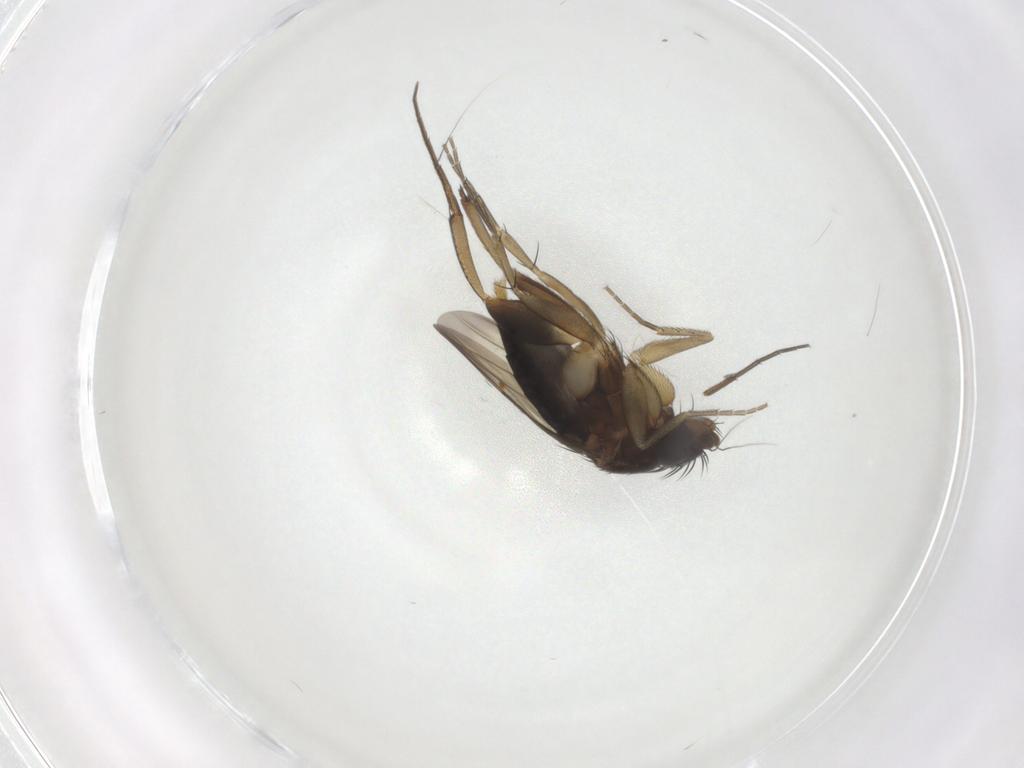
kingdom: Animalia
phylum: Arthropoda
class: Insecta
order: Diptera
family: Phoridae
